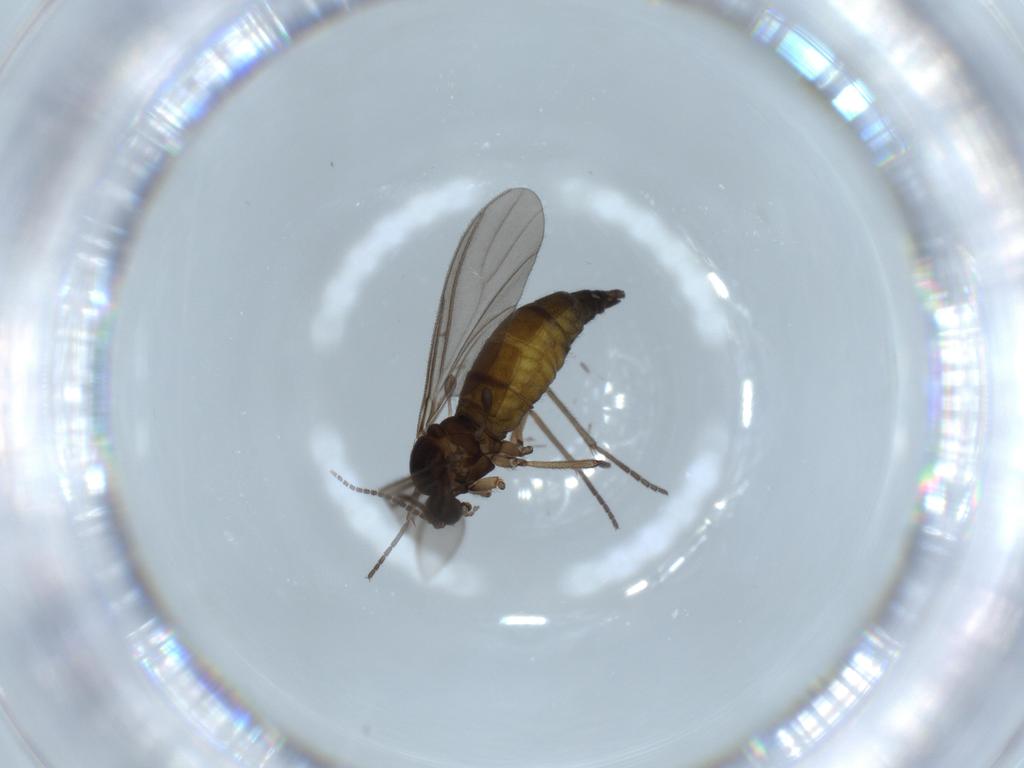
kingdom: Animalia
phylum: Arthropoda
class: Insecta
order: Diptera
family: Sciaridae
